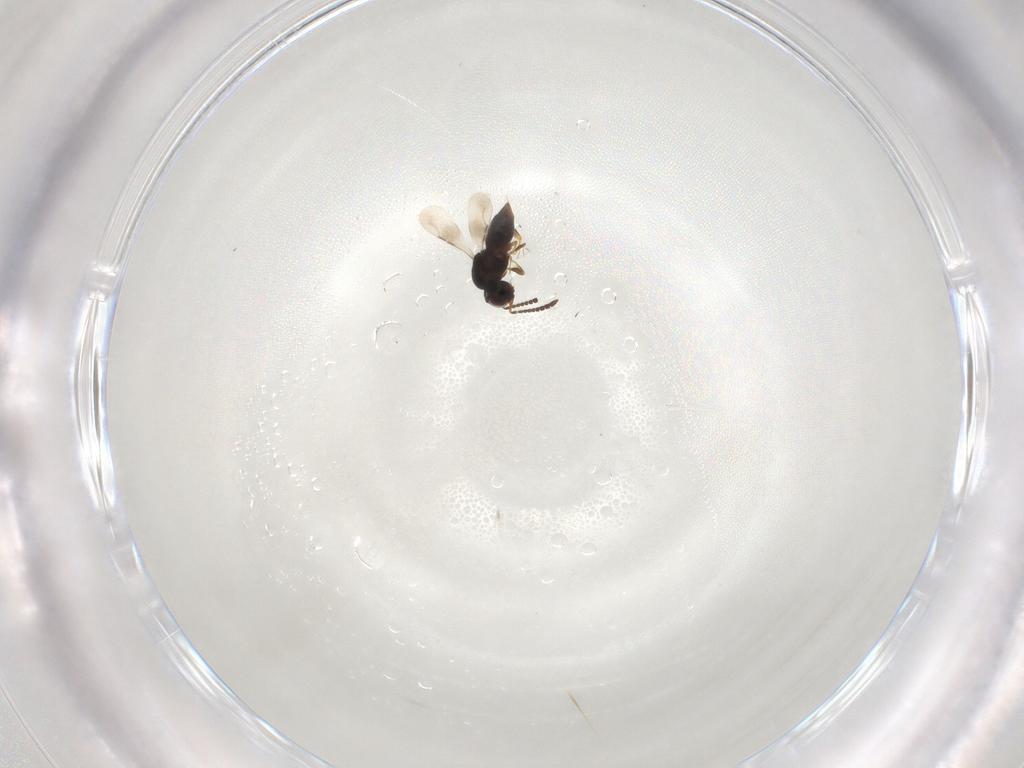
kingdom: Animalia
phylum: Arthropoda
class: Insecta
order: Hymenoptera
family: Ceraphronidae
